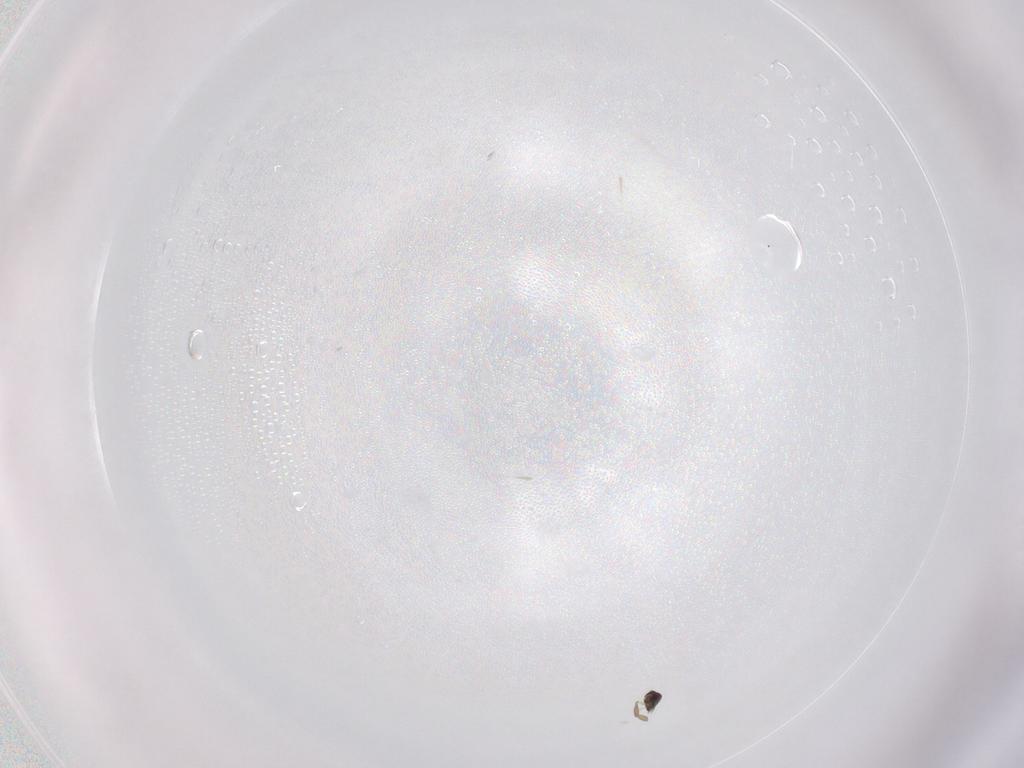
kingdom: Animalia
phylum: Arthropoda
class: Insecta
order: Hymenoptera
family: Encyrtidae
